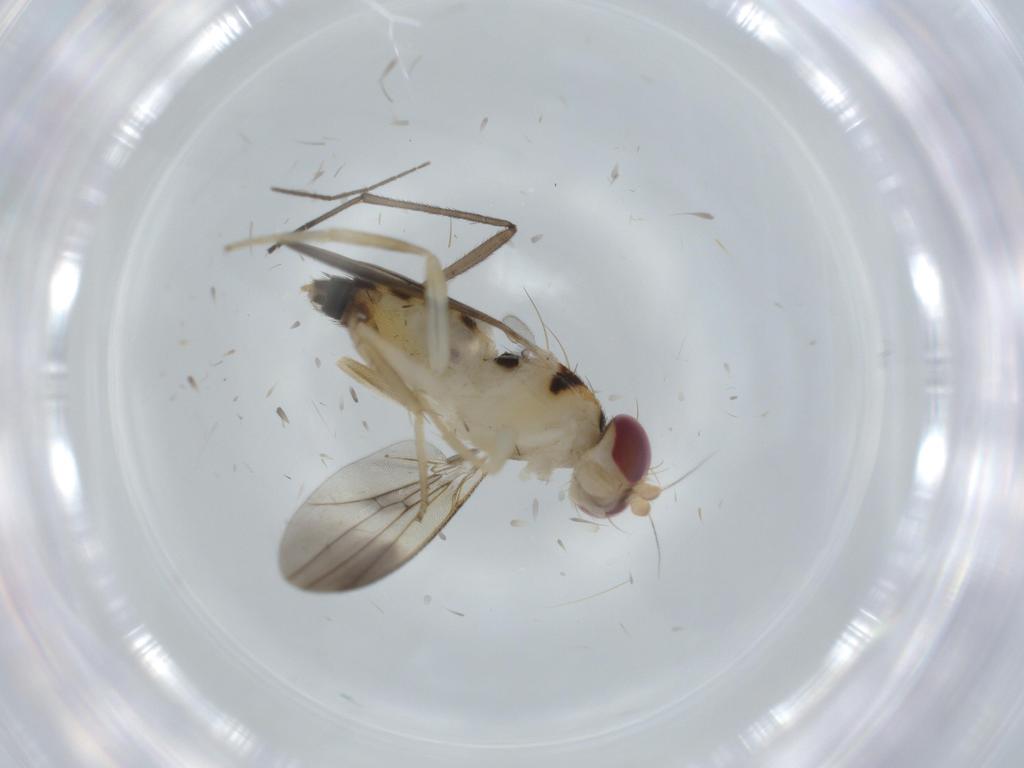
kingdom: Animalia
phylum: Arthropoda
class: Insecta
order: Diptera
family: Clusiidae
